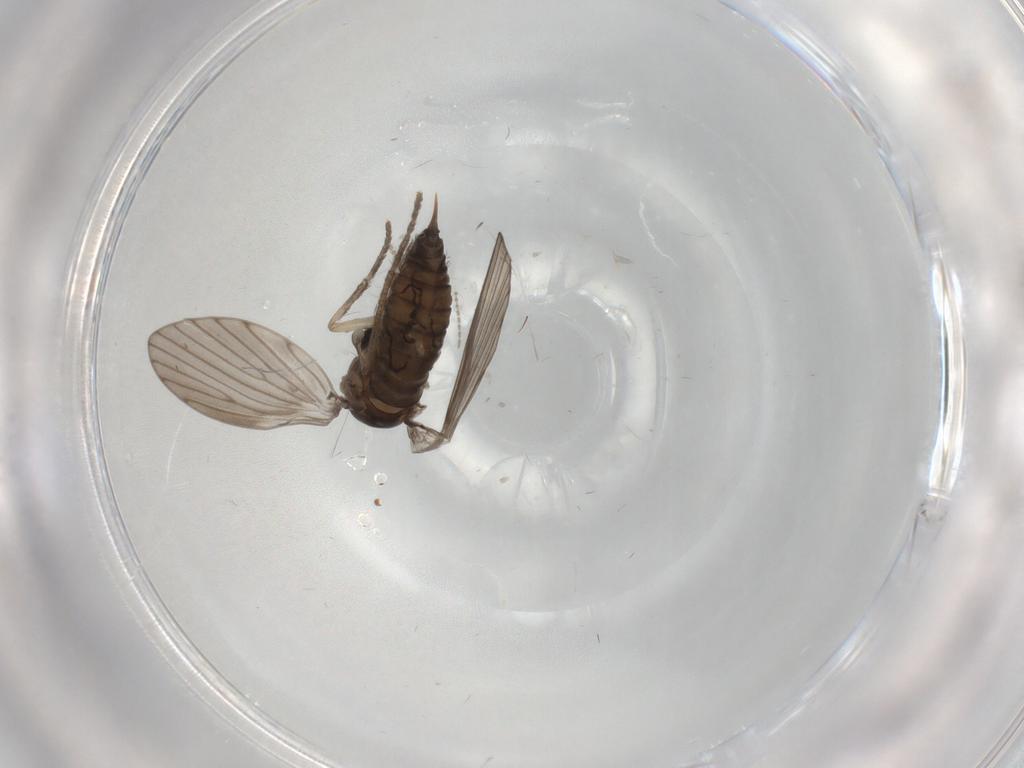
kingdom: Animalia
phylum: Arthropoda
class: Insecta
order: Diptera
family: Psychodidae
